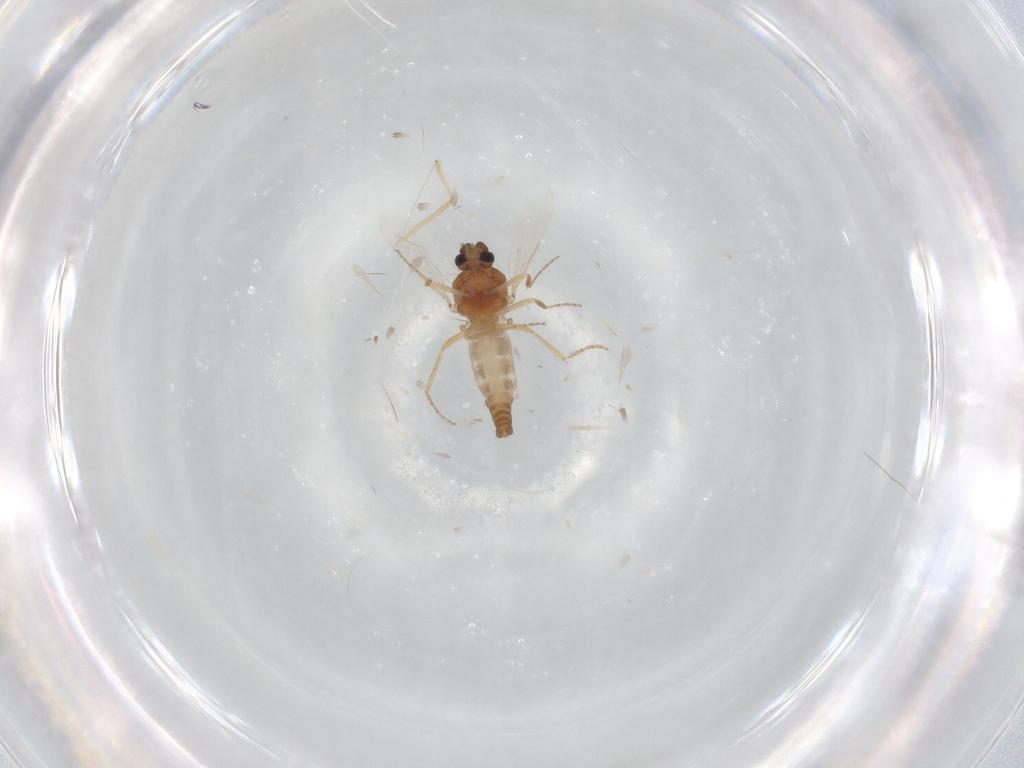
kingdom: Animalia
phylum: Arthropoda
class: Insecta
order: Diptera
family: Ceratopogonidae
